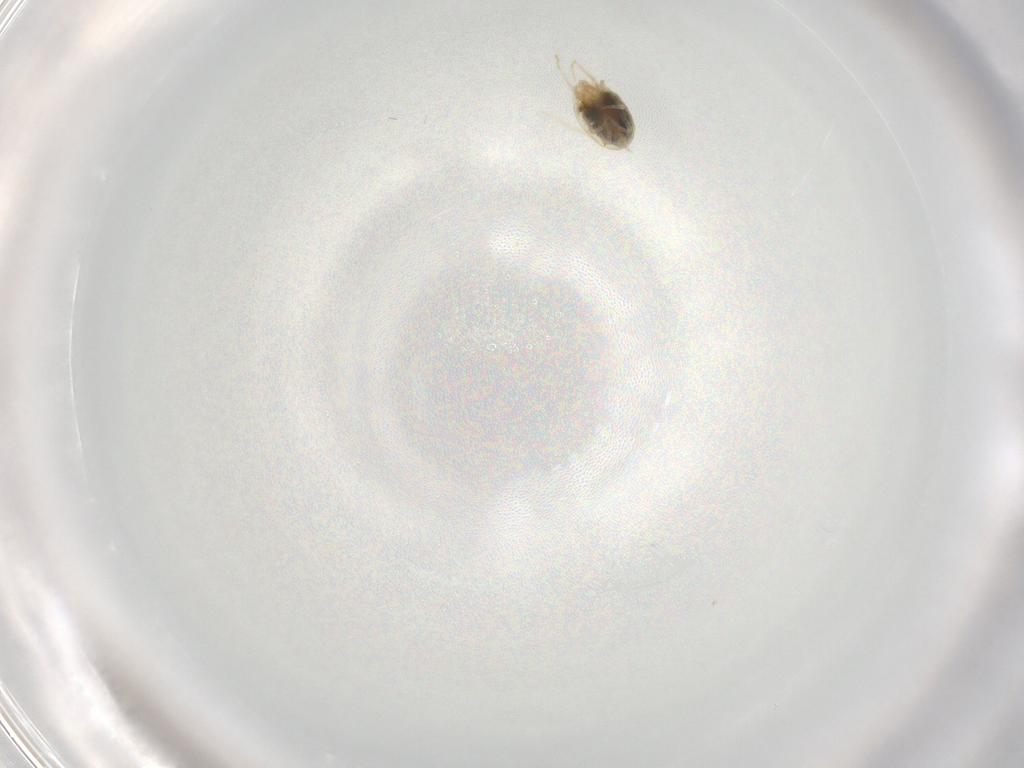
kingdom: Animalia
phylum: Arthropoda
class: Arachnida
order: Trombidiformes
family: Tetranychidae
